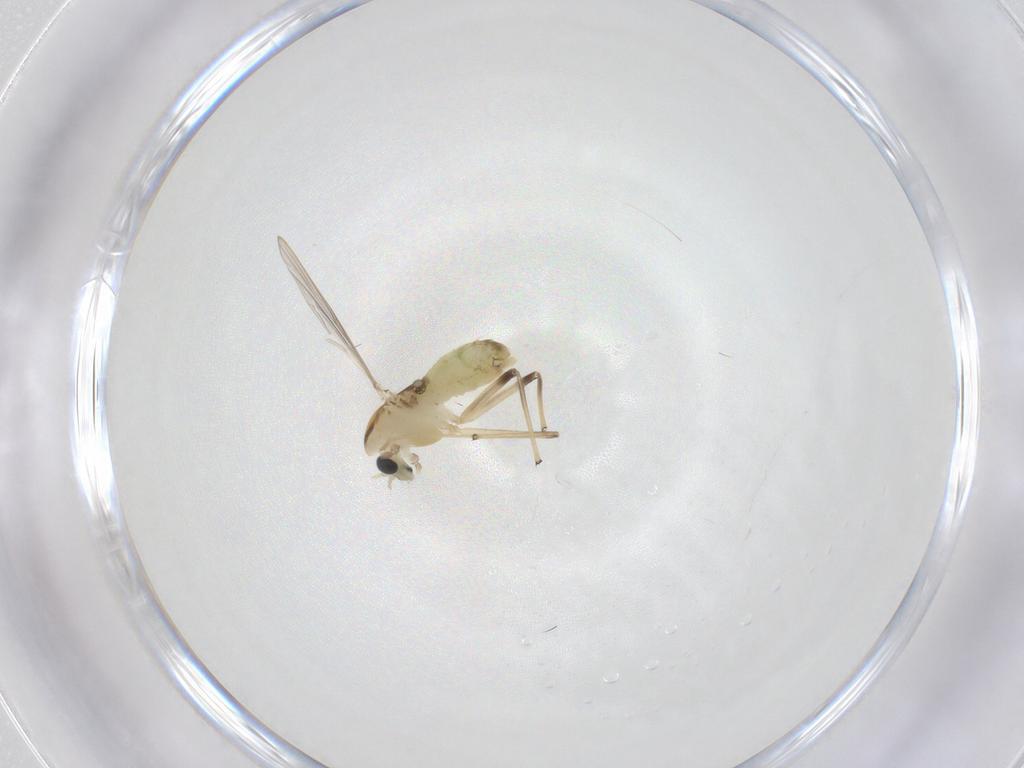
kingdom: Animalia
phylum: Arthropoda
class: Insecta
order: Diptera
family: Chironomidae
